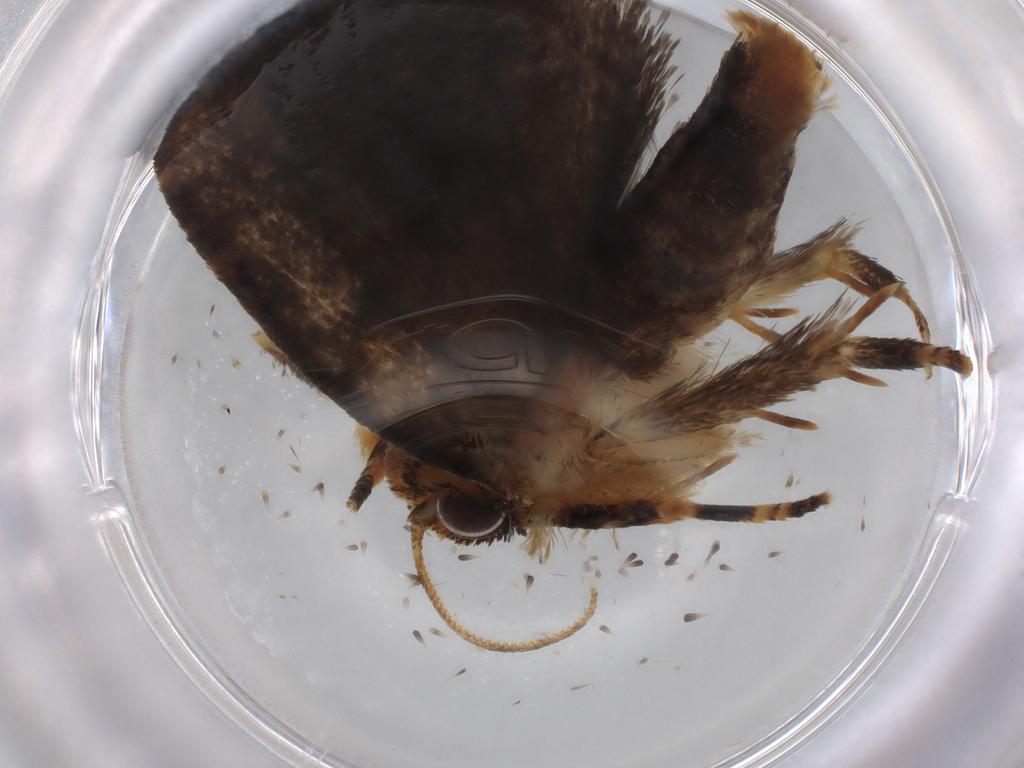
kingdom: Animalia
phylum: Arthropoda
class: Insecta
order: Lepidoptera
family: Tineidae
